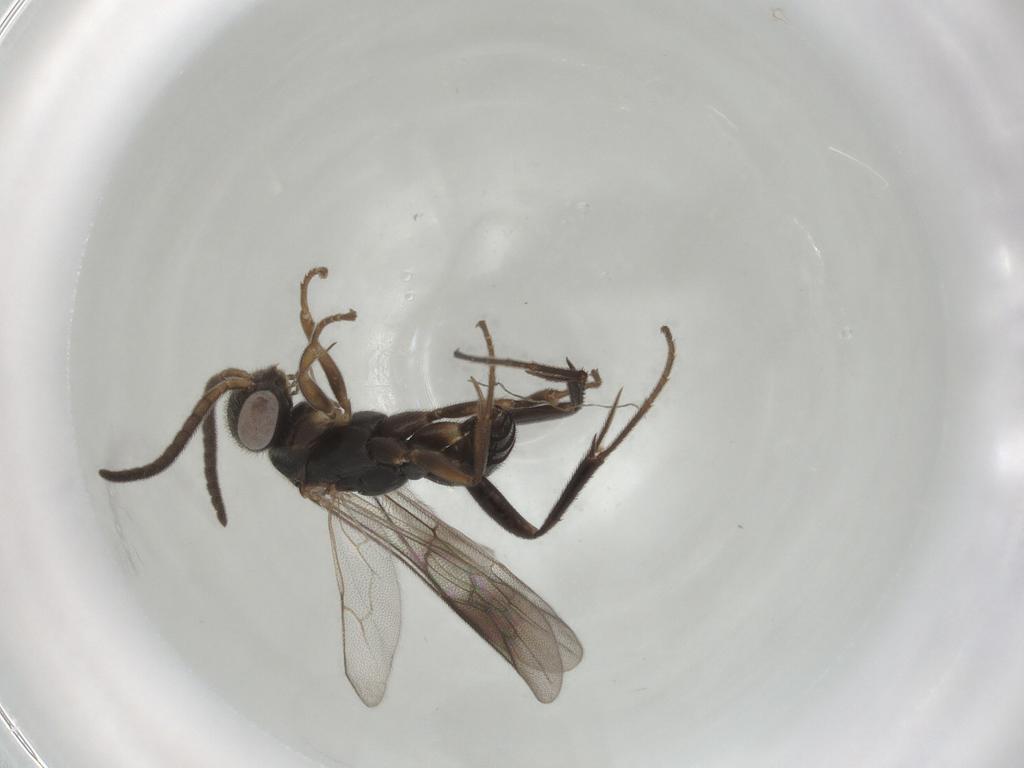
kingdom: Animalia
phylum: Arthropoda
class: Insecta
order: Hymenoptera
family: Pompilidae
